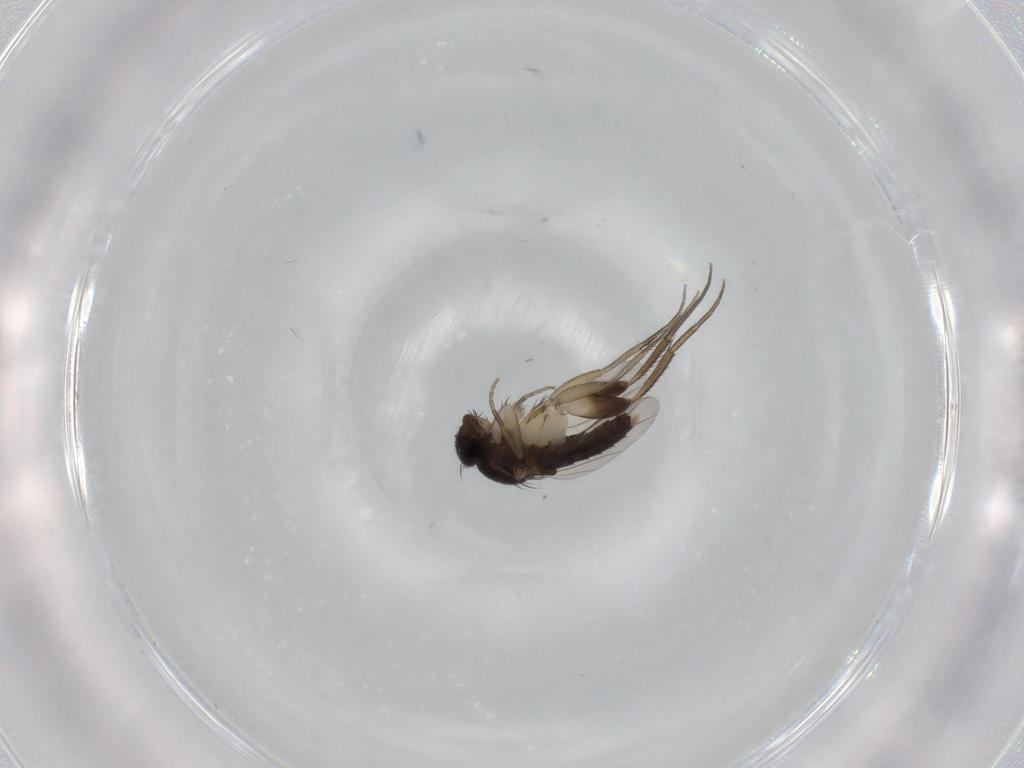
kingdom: Animalia
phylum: Arthropoda
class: Insecta
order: Diptera
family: Phoridae
